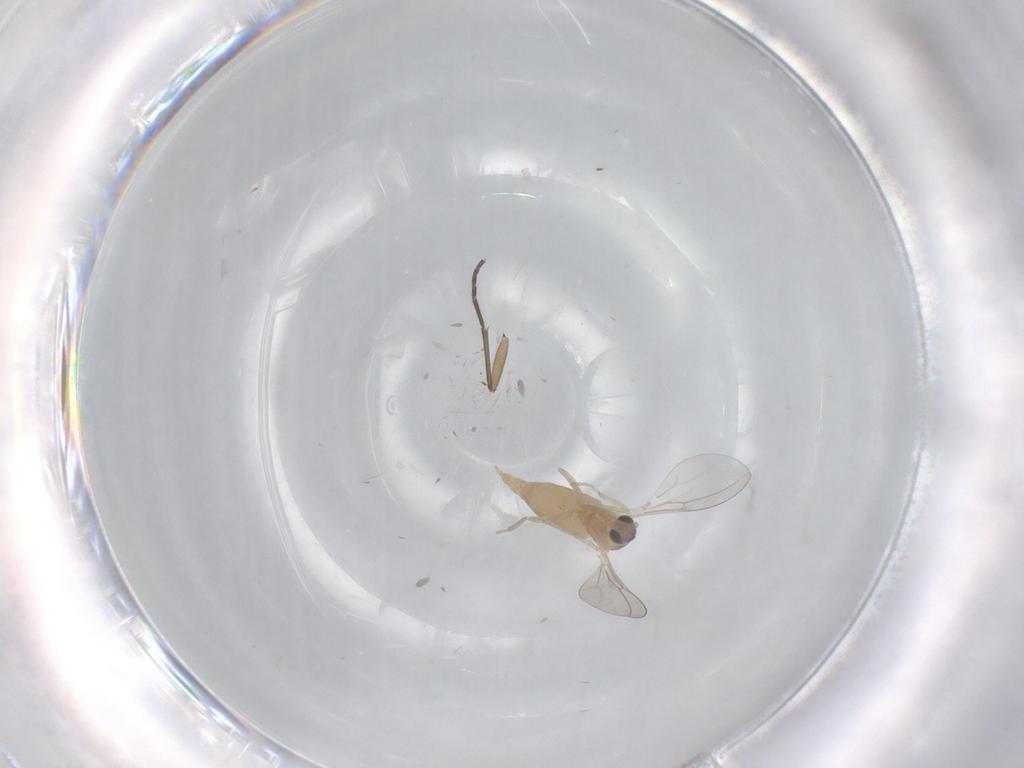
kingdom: Animalia
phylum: Arthropoda
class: Insecta
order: Diptera
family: Cecidomyiidae
